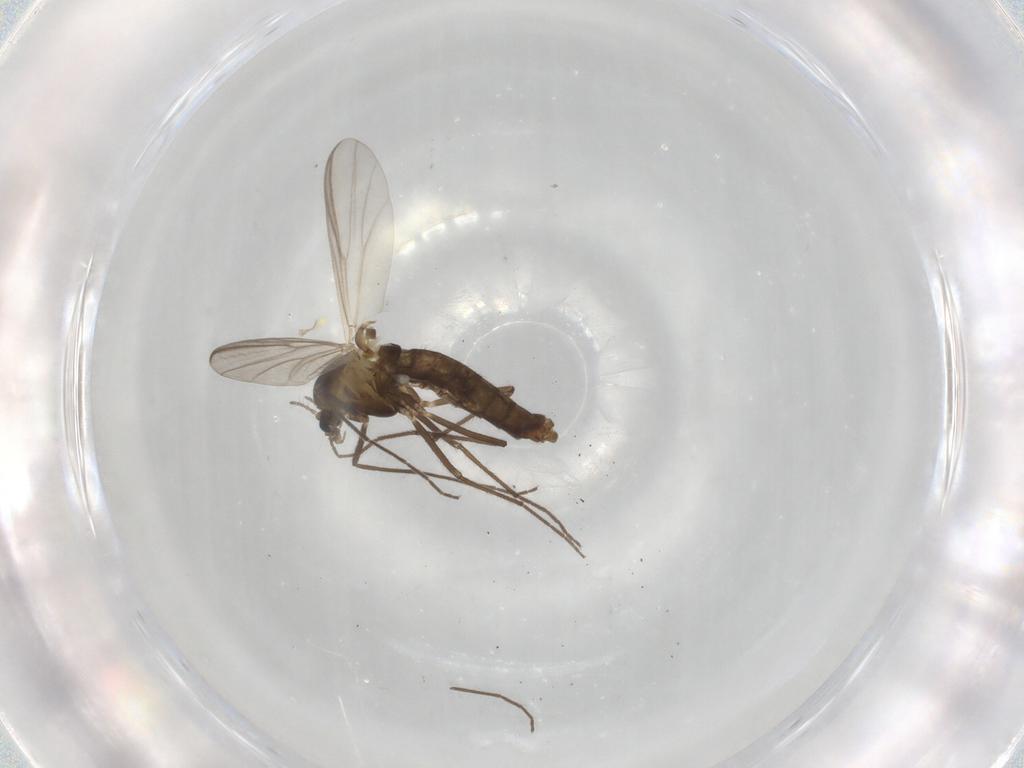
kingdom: Animalia
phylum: Arthropoda
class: Insecta
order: Diptera
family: Chironomidae
